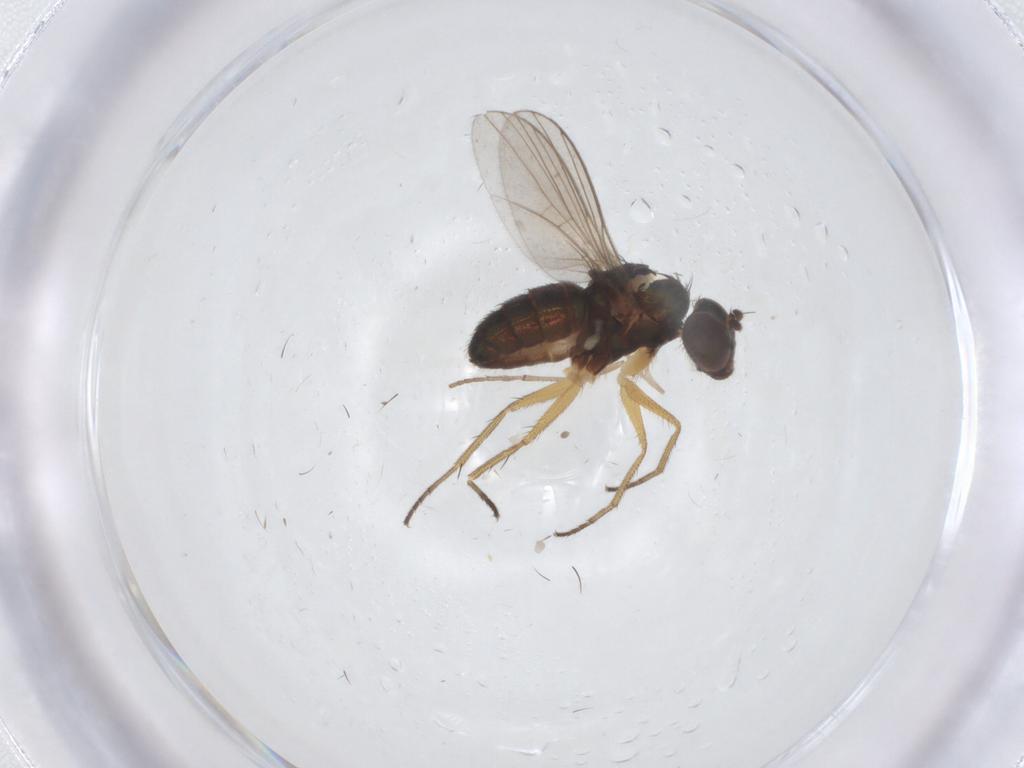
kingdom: Animalia
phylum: Arthropoda
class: Insecta
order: Diptera
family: Psychodidae
